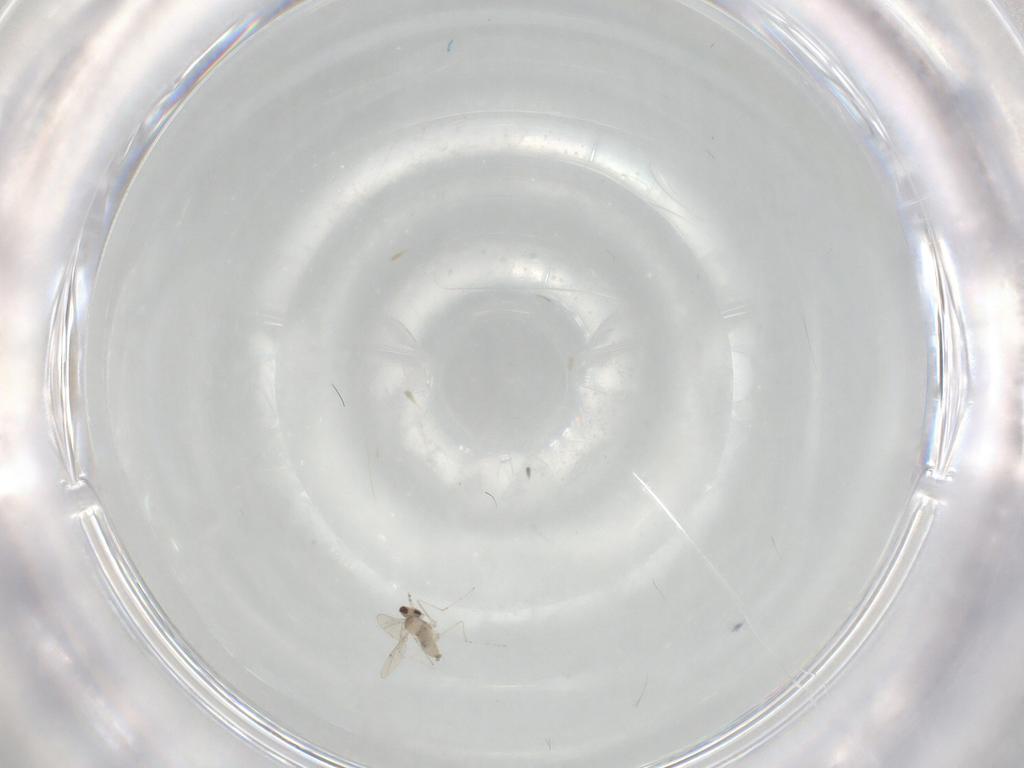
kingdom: Animalia
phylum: Arthropoda
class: Insecta
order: Diptera
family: Cecidomyiidae
